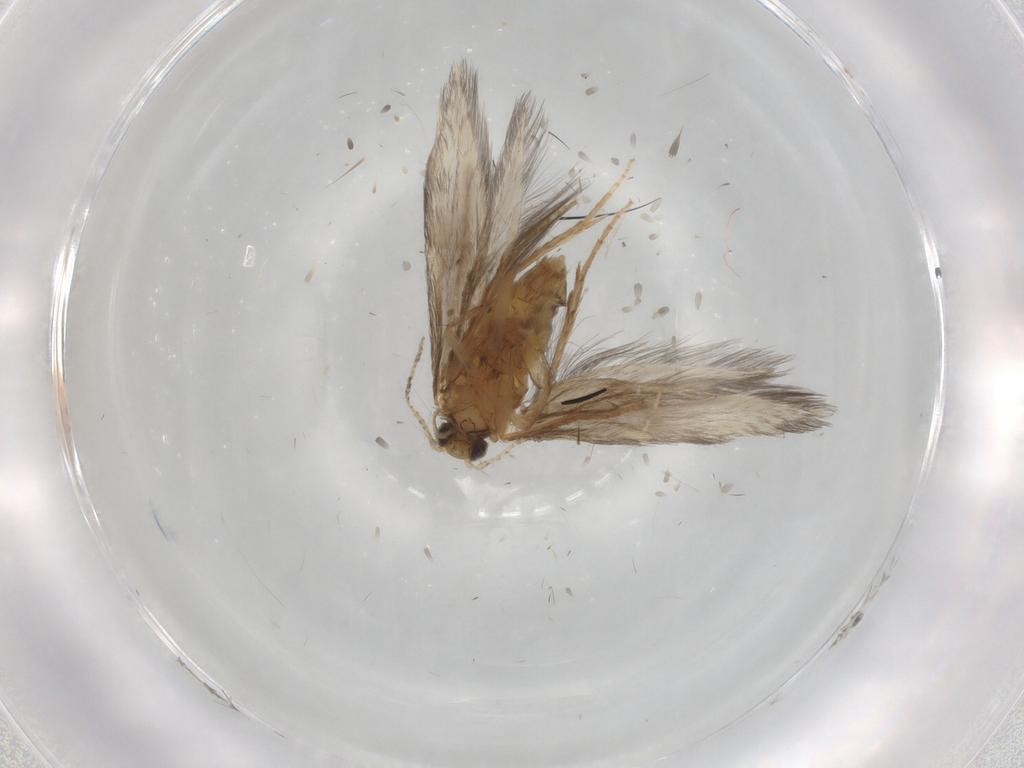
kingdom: Animalia
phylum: Arthropoda
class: Insecta
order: Trichoptera
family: Hydroptilidae
